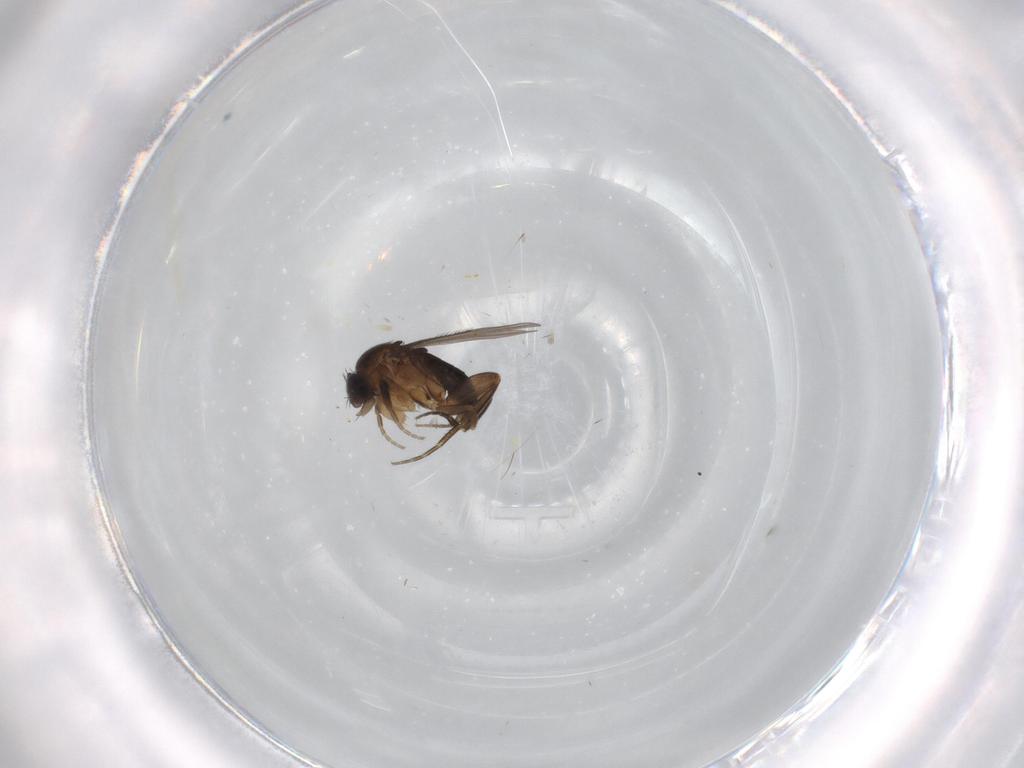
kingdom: Animalia
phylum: Arthropoda
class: Insecta
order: Diptera
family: Phoridae
